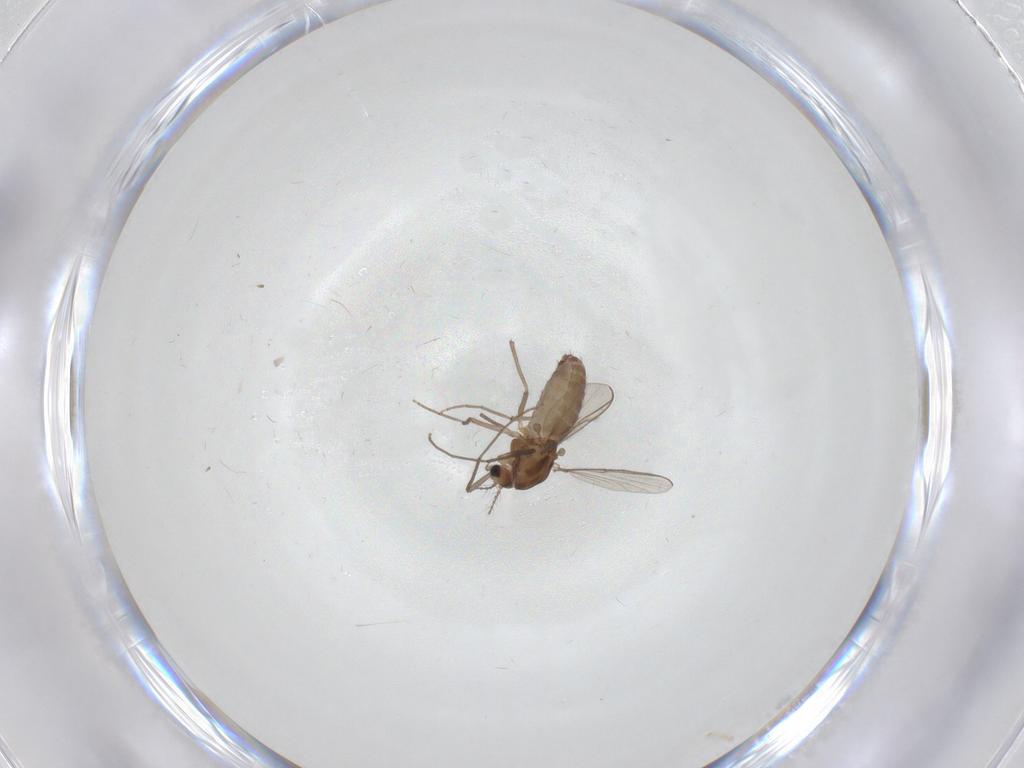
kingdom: Animalia
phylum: Arthropoda
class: Insecta
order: Diptera
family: Chironomidae
